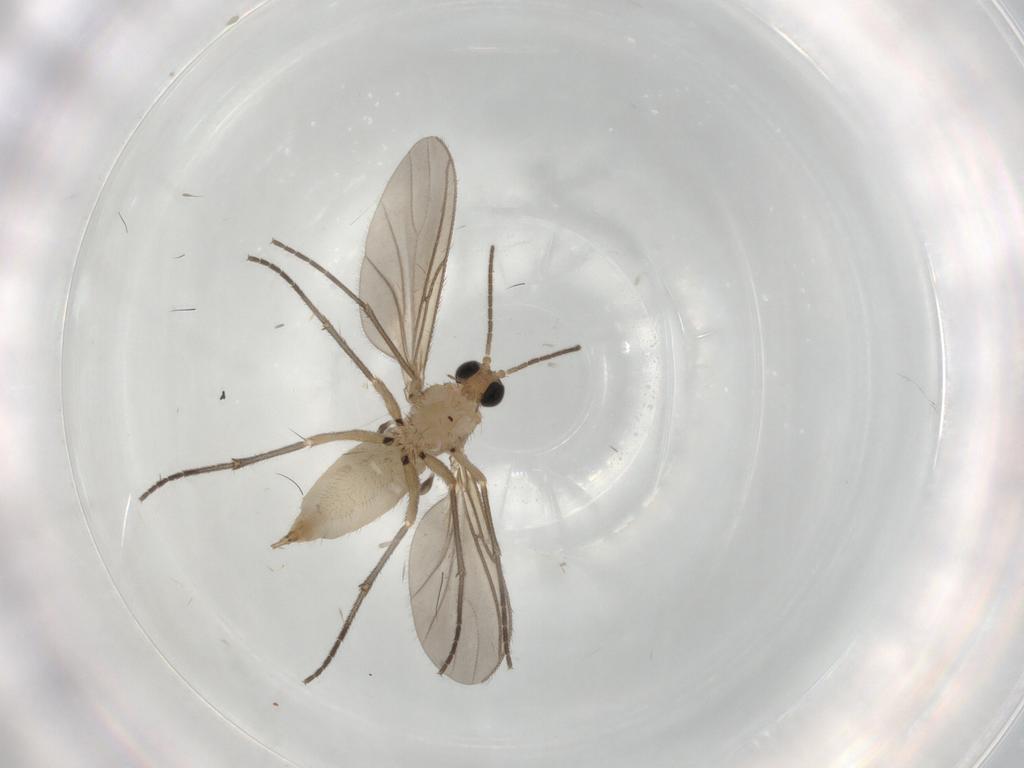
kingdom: Animalia
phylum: Arthropoda
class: Insecta
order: Diptera
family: Sciaridae
